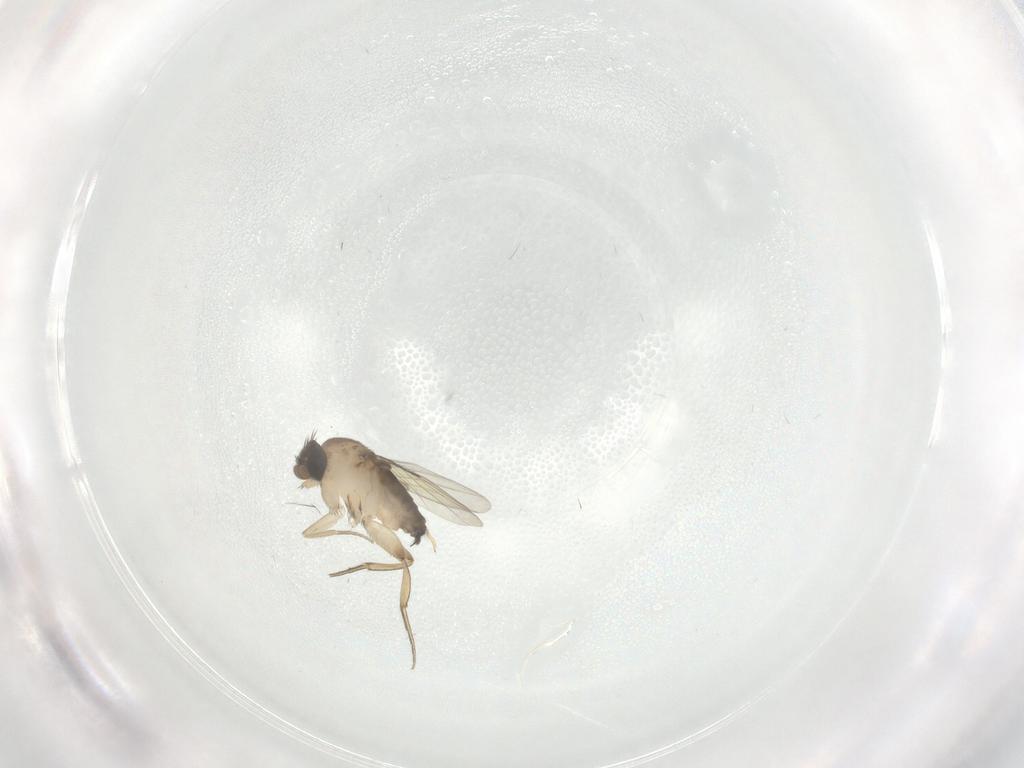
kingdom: Animalia
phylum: Arthropoda
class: Insecta
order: Diptera
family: Phoridae
